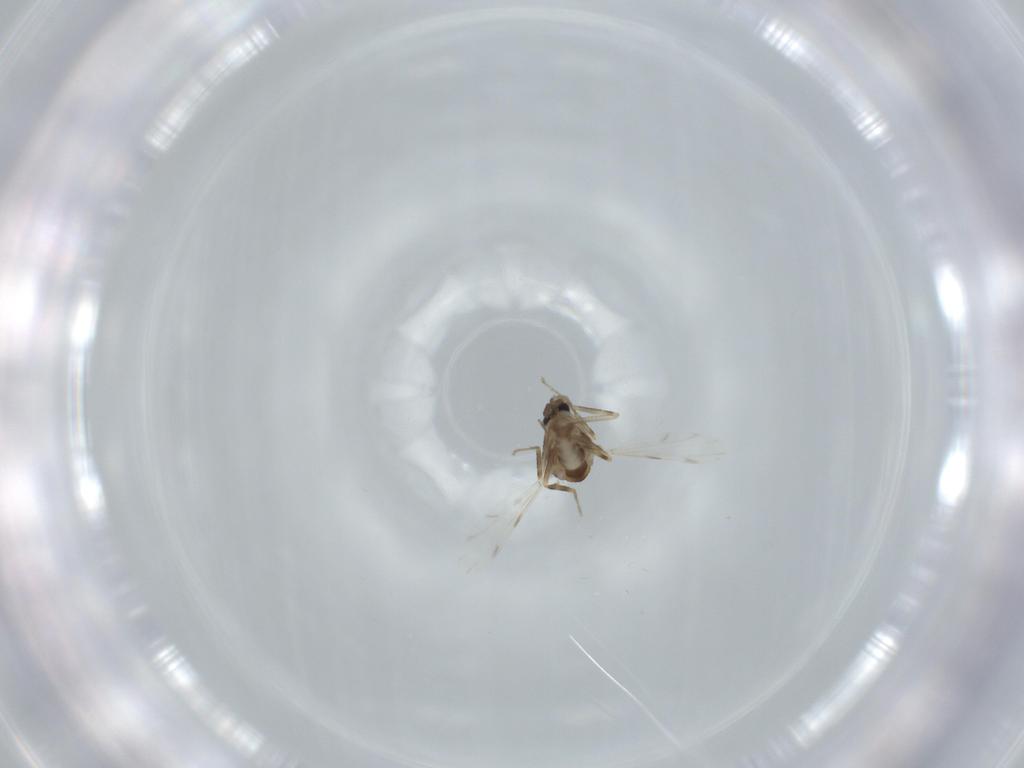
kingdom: Animalia
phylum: Arthropoda
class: Insecta
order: Diptera
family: Ceratopogonidae
